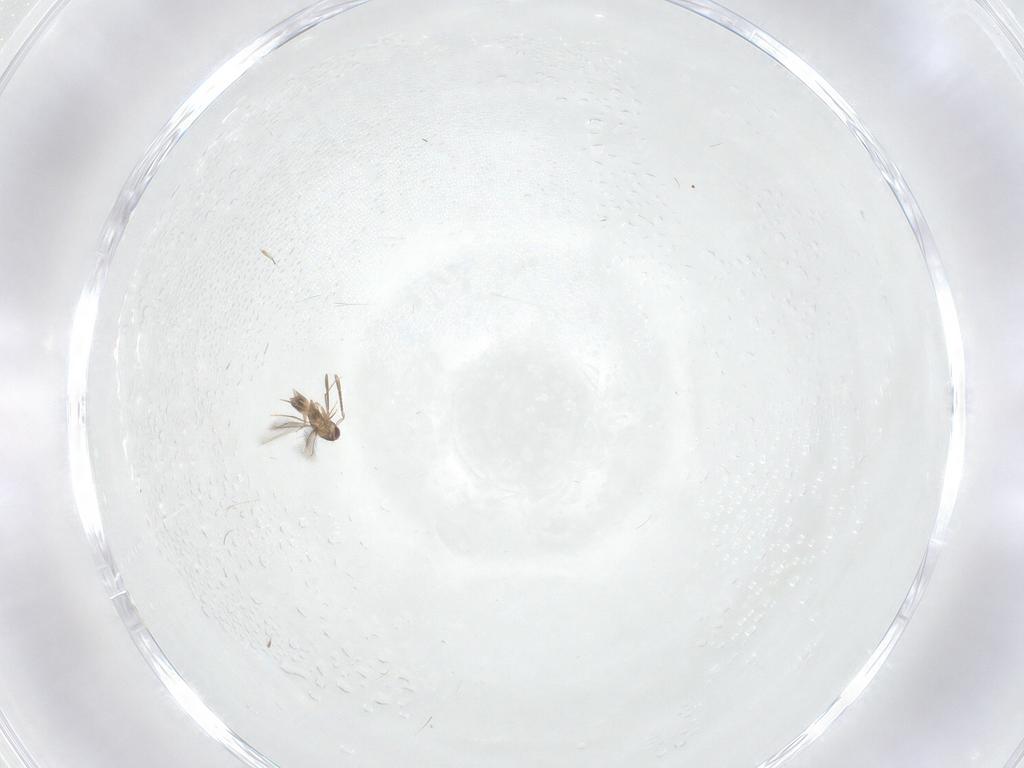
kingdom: Animalia
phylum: Arthropoda
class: Insecta
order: Hymenoptera
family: Mymaridae
